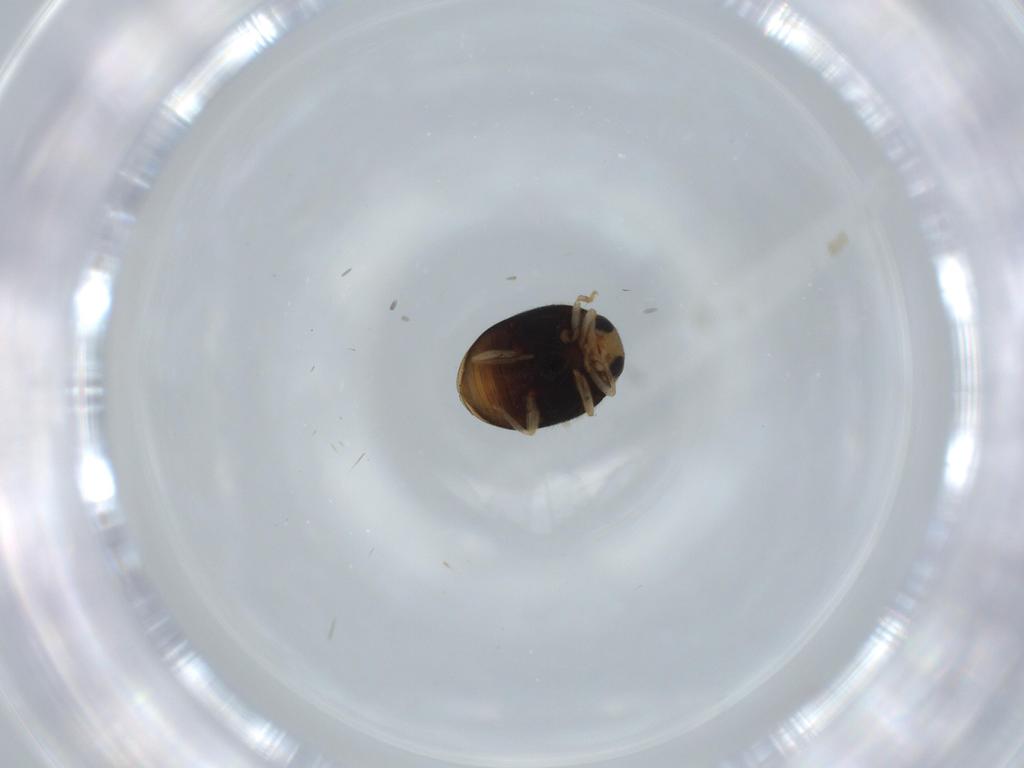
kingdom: Animalia
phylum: Arthropoda
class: Insecta
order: Coleoptera
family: Coccinellidae
